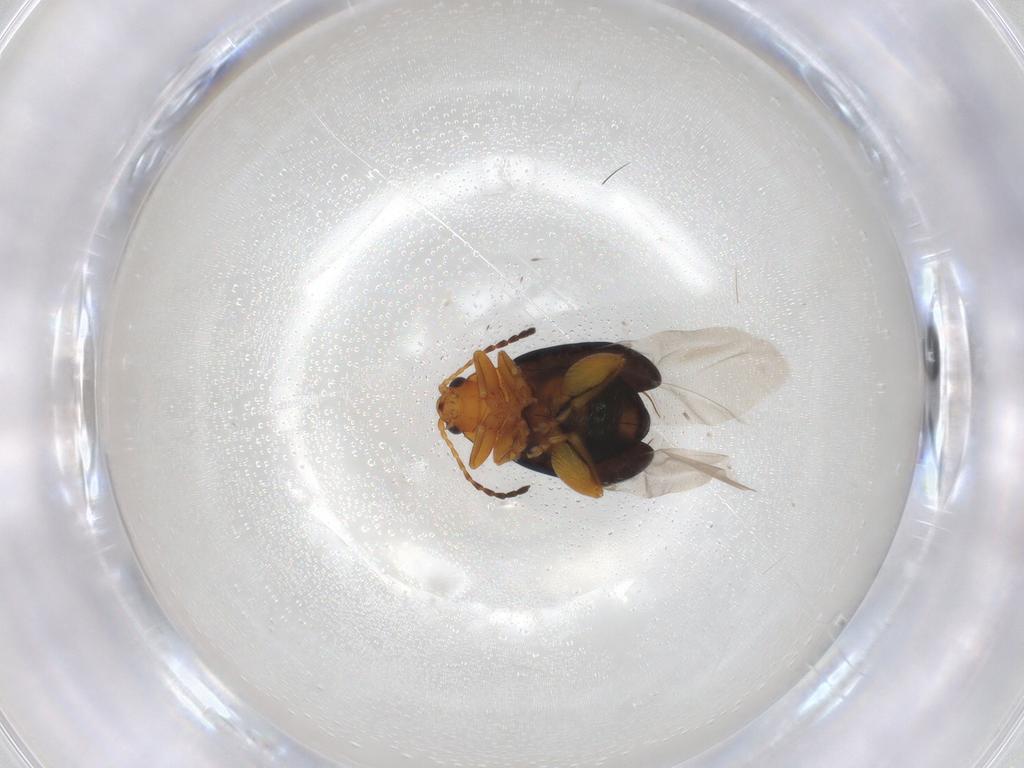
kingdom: Animalia
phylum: Arthropoda
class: Insecta
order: Coleoptera
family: Chrysomelidae
